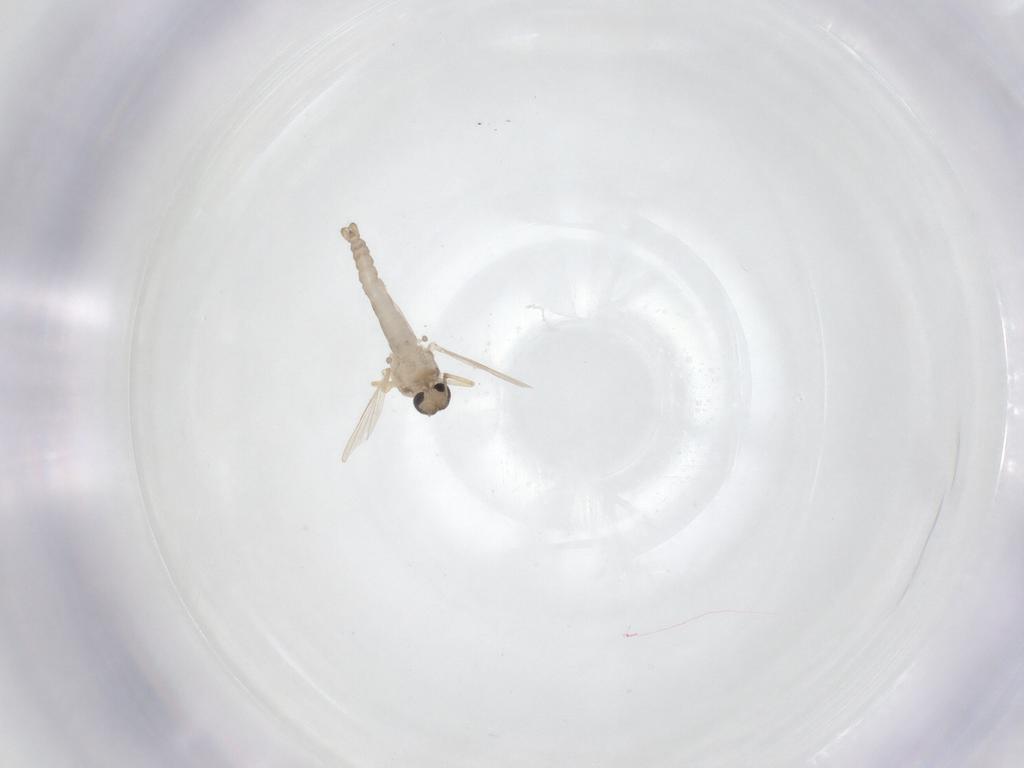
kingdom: Animalia
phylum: Arthropoda
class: Insecta
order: Diptera
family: Ceratopogonidae
